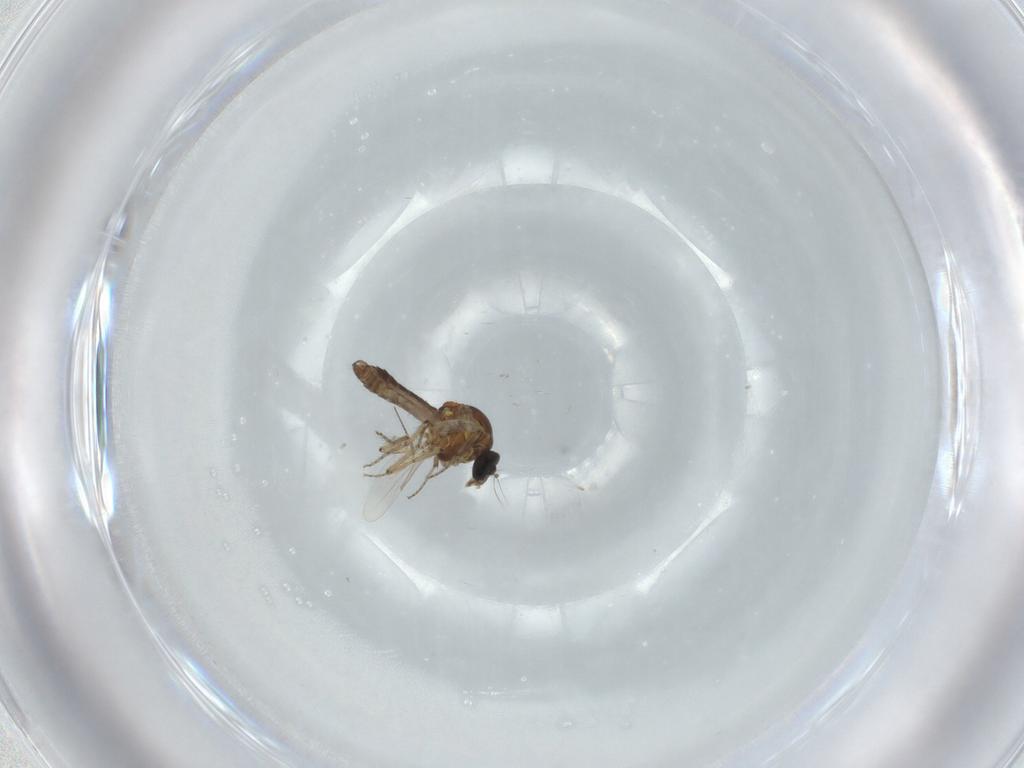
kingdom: Animalia
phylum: Arthropoda
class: Insecta
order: Diptera
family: Ceratopogonidae
